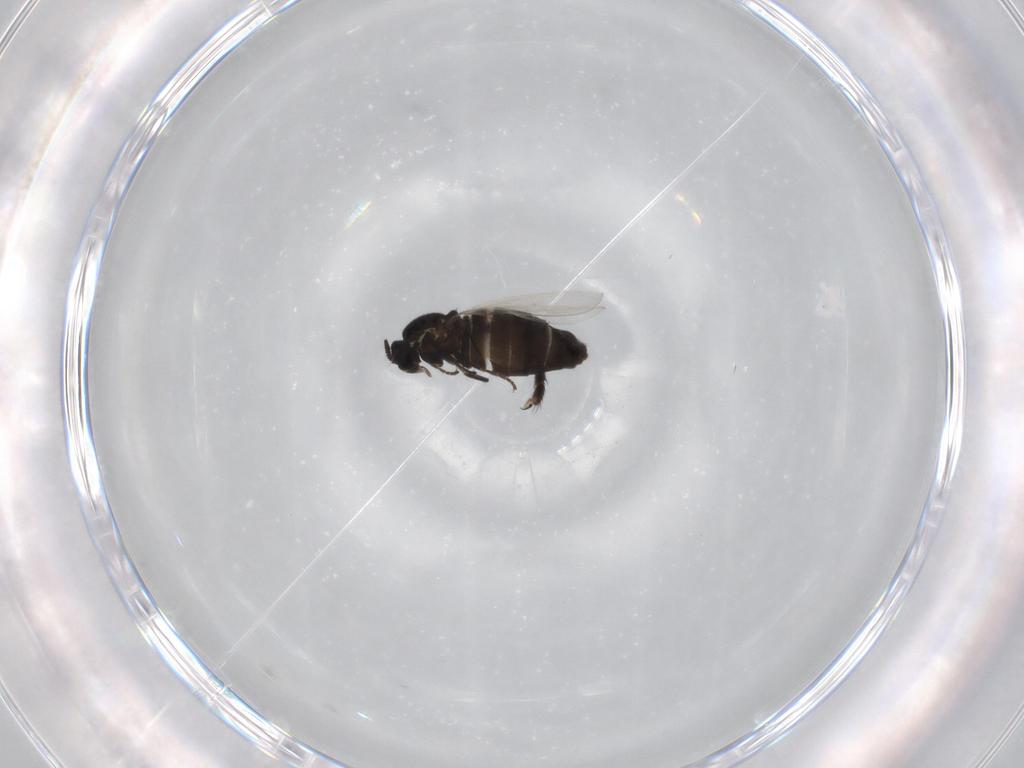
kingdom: Animalia
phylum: Arthropoda
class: Insecta
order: Diptera
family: Scatopsidae
